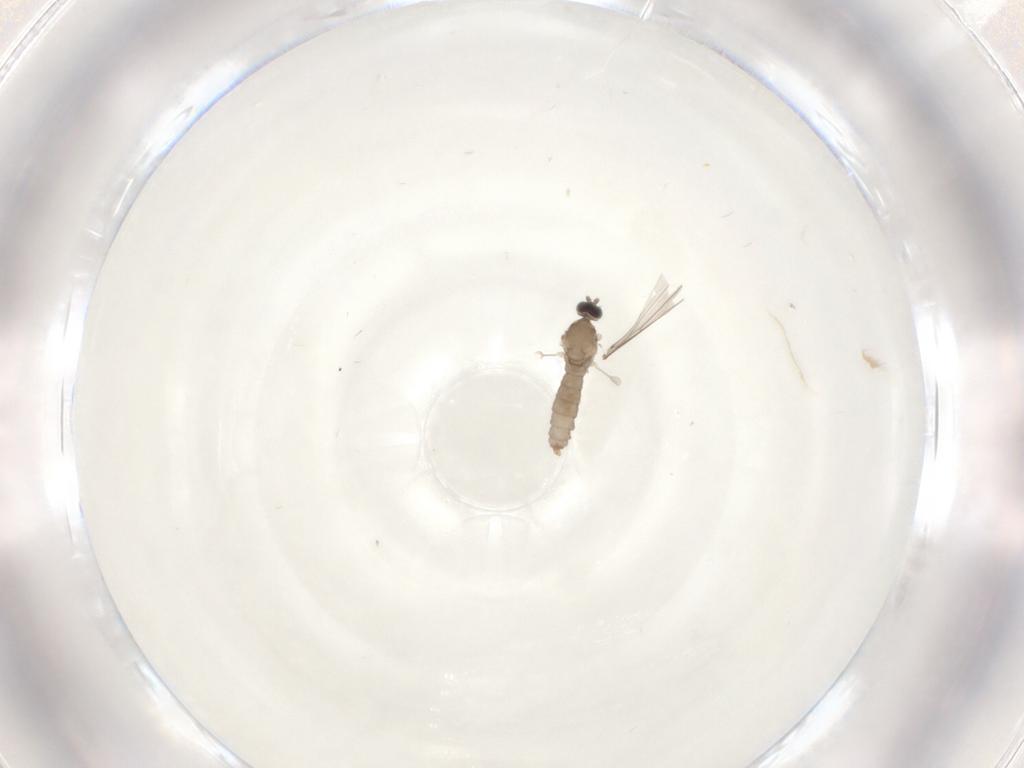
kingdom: Animalia
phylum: Arthropoda
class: Insecta
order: Diptera
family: Cecidomyiidae
